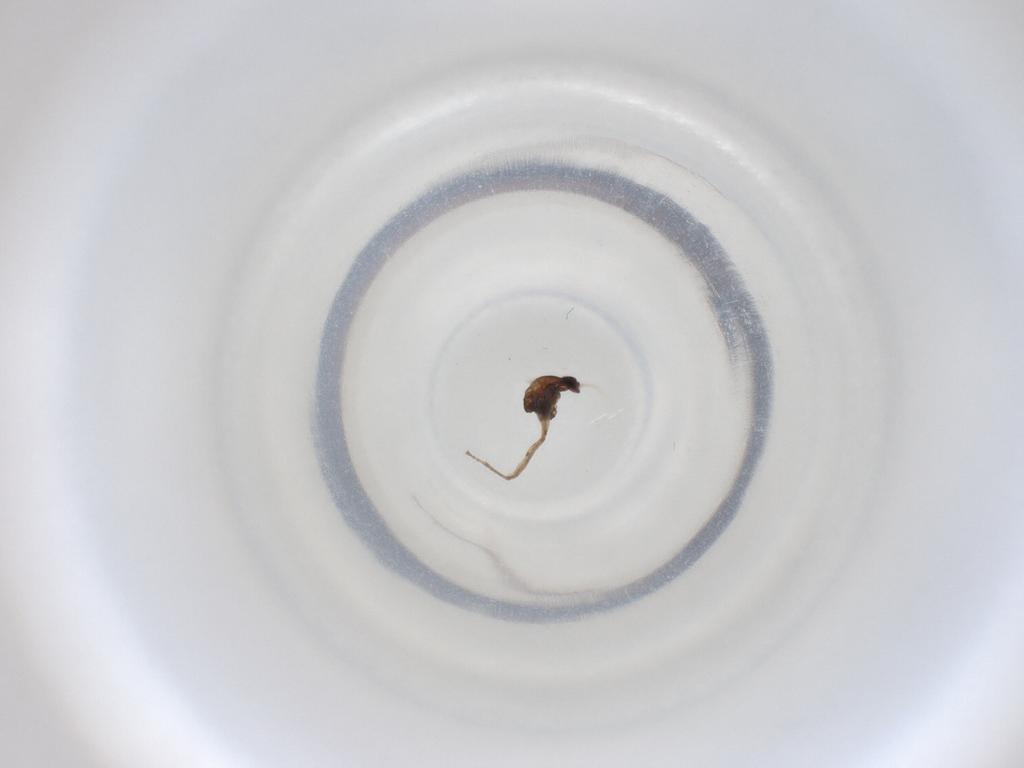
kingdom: Animalia
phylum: Arthropoda
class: Insecta
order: Diptera
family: Cecidomyiidae
